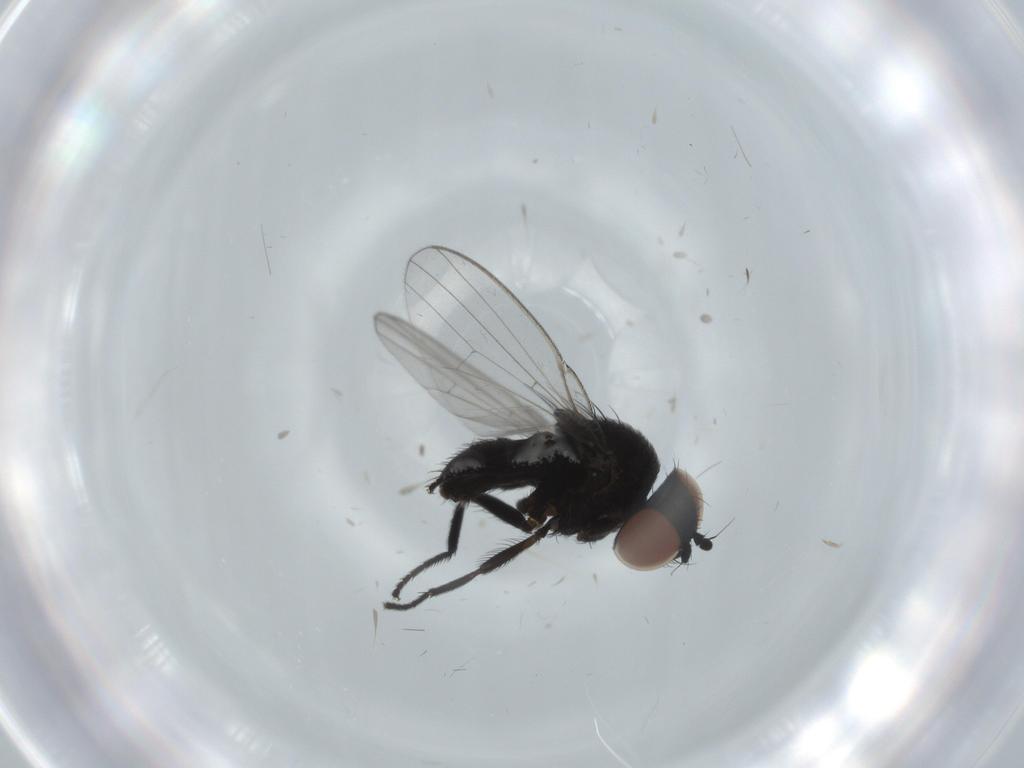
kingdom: Animalia
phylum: Arthropoda
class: Insecta
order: Diptera
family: Milichiidae
